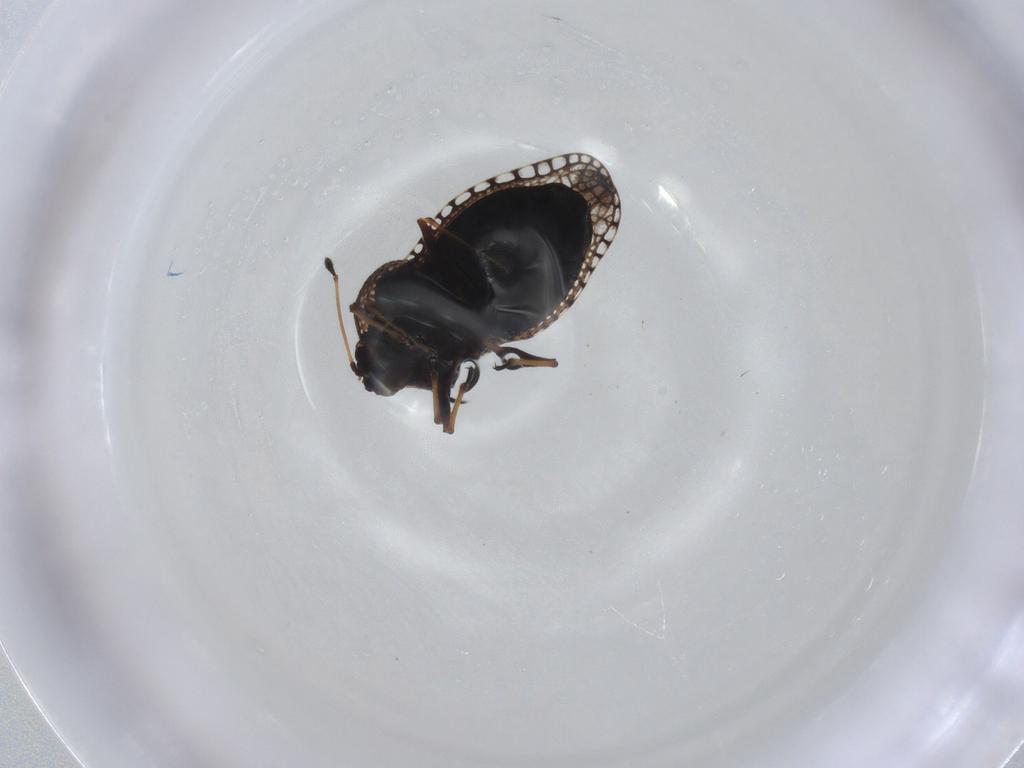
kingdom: Animalia
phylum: Arthropoda
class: Insecta
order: Hemiptera
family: Tingidae
